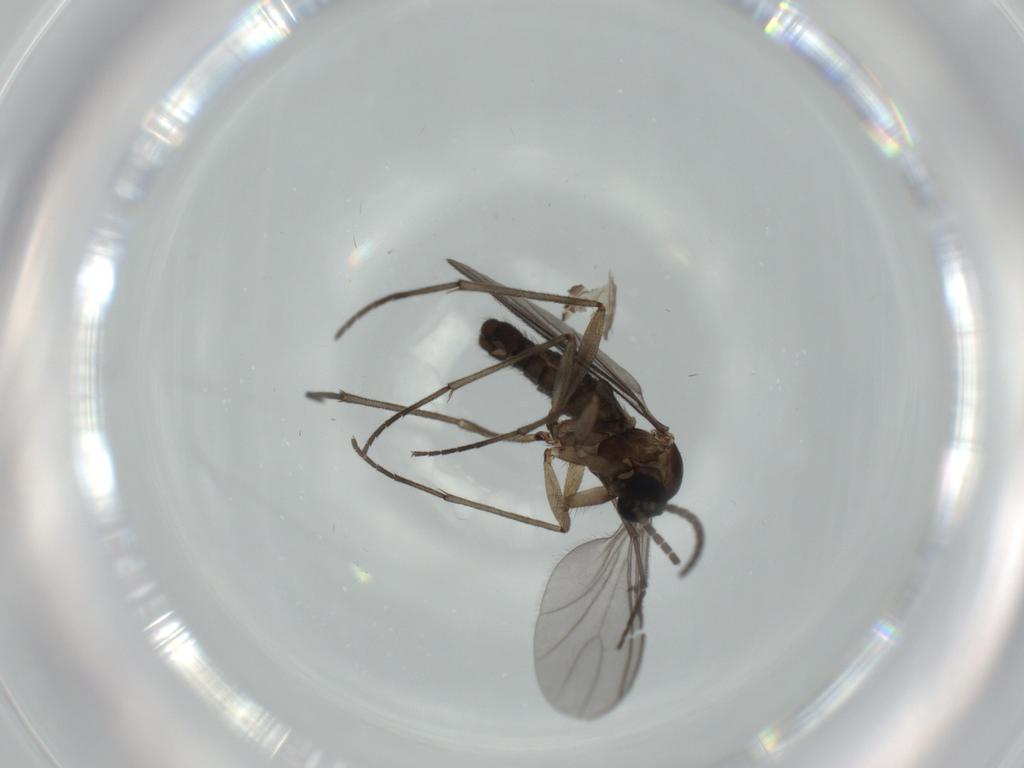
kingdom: Animalia
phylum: Arthropoda
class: Insecta
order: Diptera
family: Sciaridae
